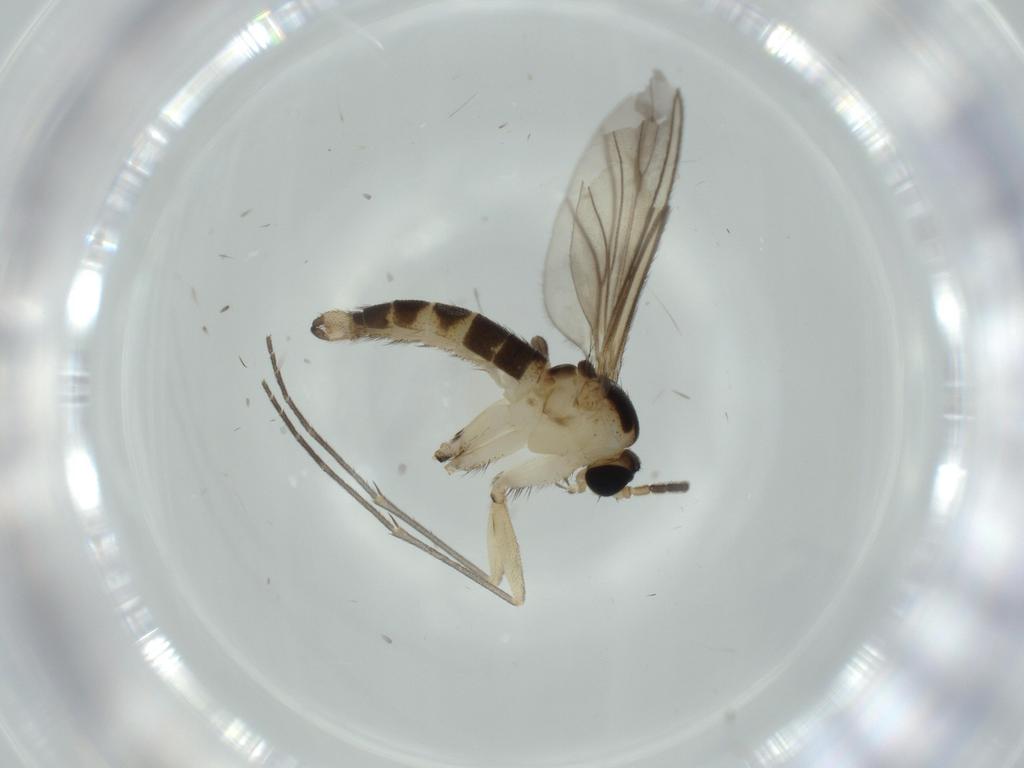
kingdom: Animalia
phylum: Arthropoda
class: Insecta
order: Diptera
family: Sciaridae
